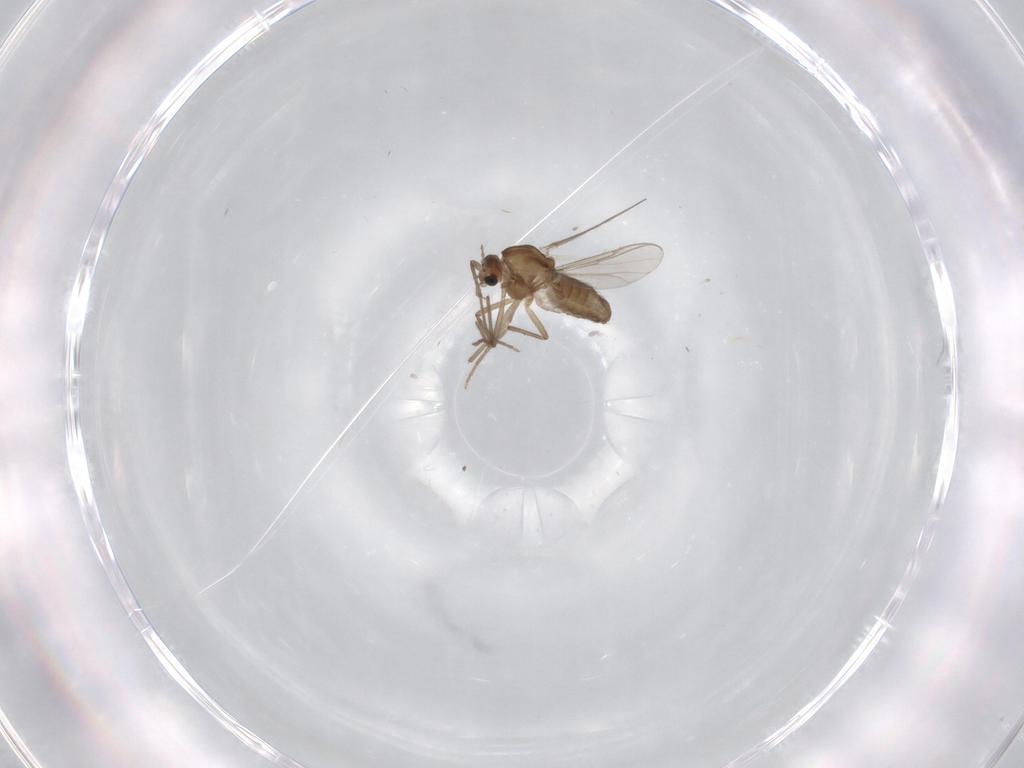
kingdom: Animalia
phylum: Arthropoda
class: Insecta
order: Diptera
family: Chironomidae
